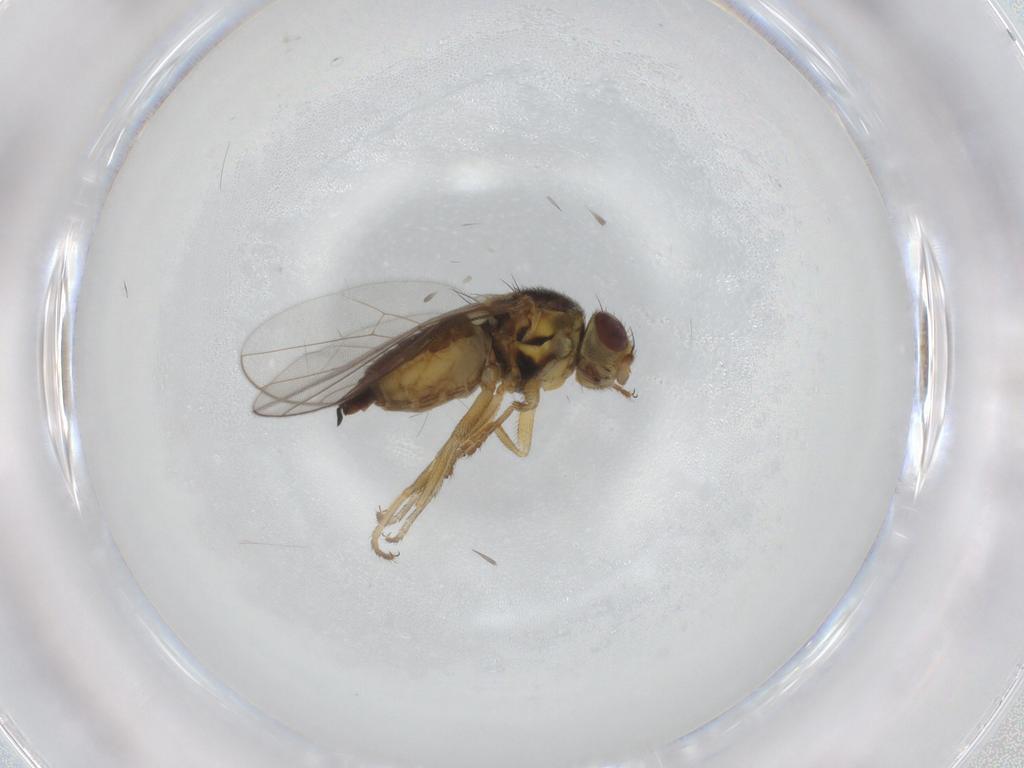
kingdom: Animalia
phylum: Arthropoda
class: Insecta
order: Diptera
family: Chloropidae
